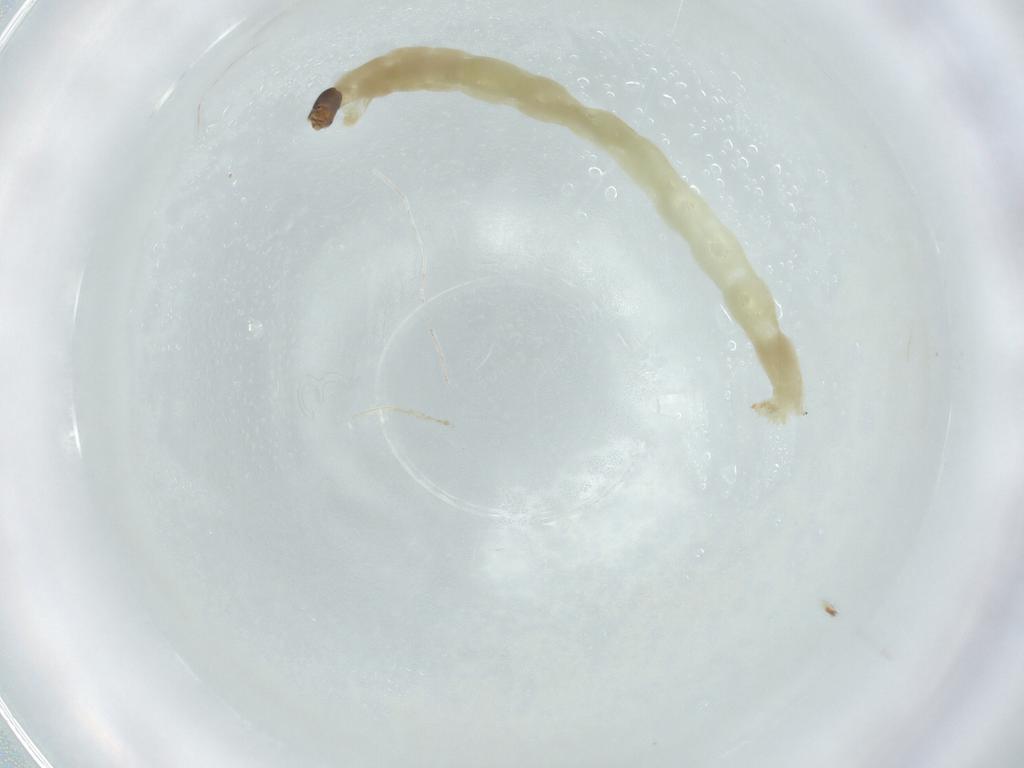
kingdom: Animalia
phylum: Arthropoda
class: Insecta
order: Diptera
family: Chironomidae
